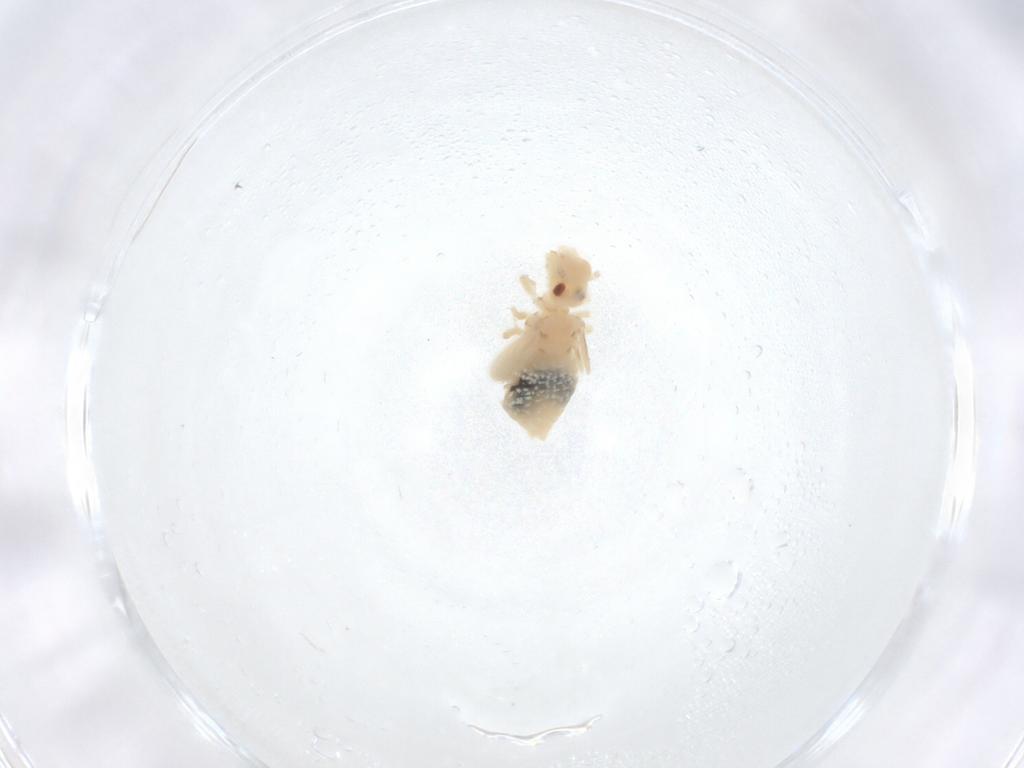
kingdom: Animalia
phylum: Arthropoda
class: Insecta
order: Psocodea
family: Caeciliusidae
